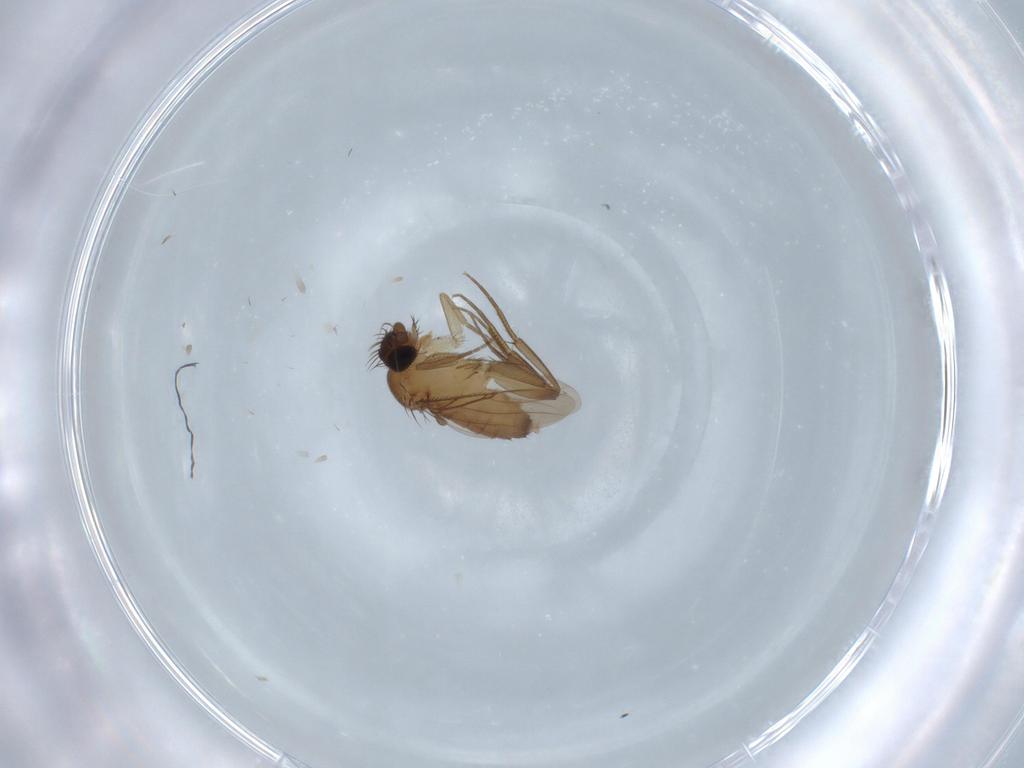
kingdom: Animalia
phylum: Arthropoda
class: Insecta
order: Diptera
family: Phoridae
